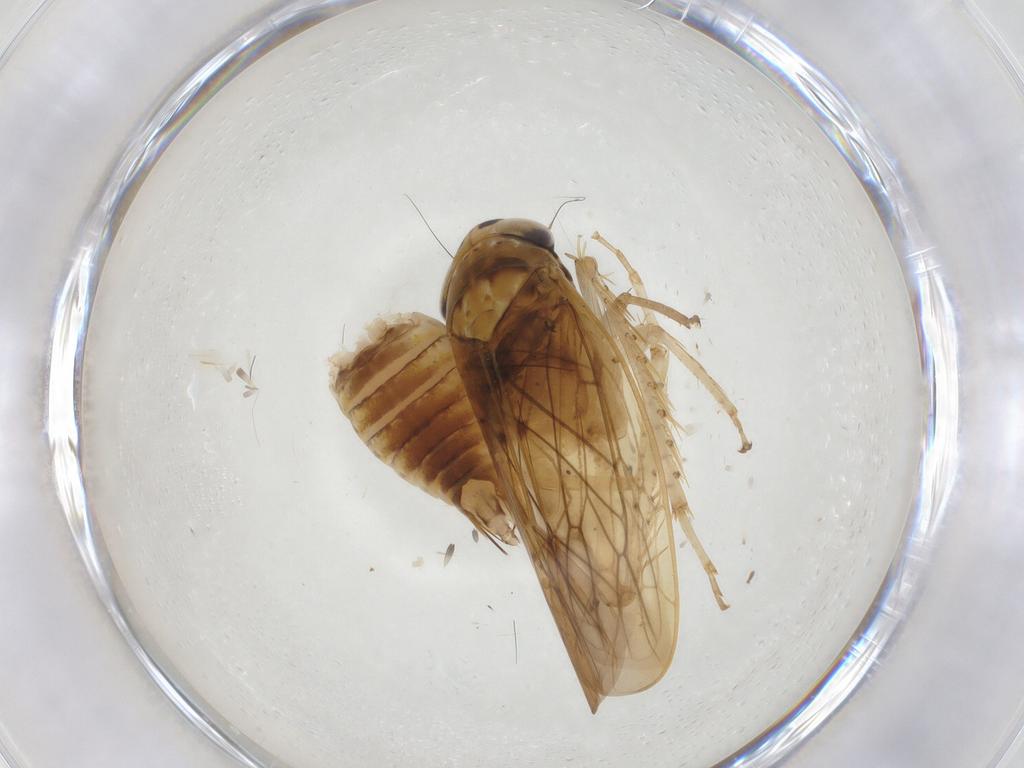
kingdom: Animalia
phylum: Arthropoda
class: Insecta
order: Hemiptera
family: Cicadellidae
